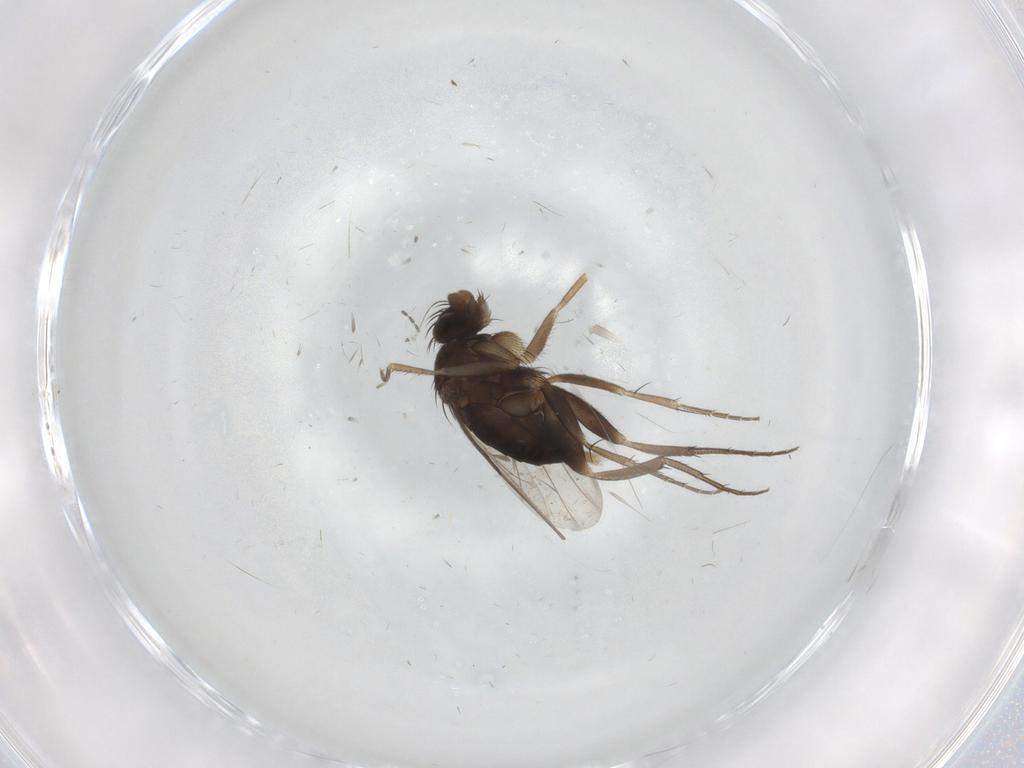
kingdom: Animalia
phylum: Arthropoda
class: Insecta
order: Diptera
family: Phoridae
